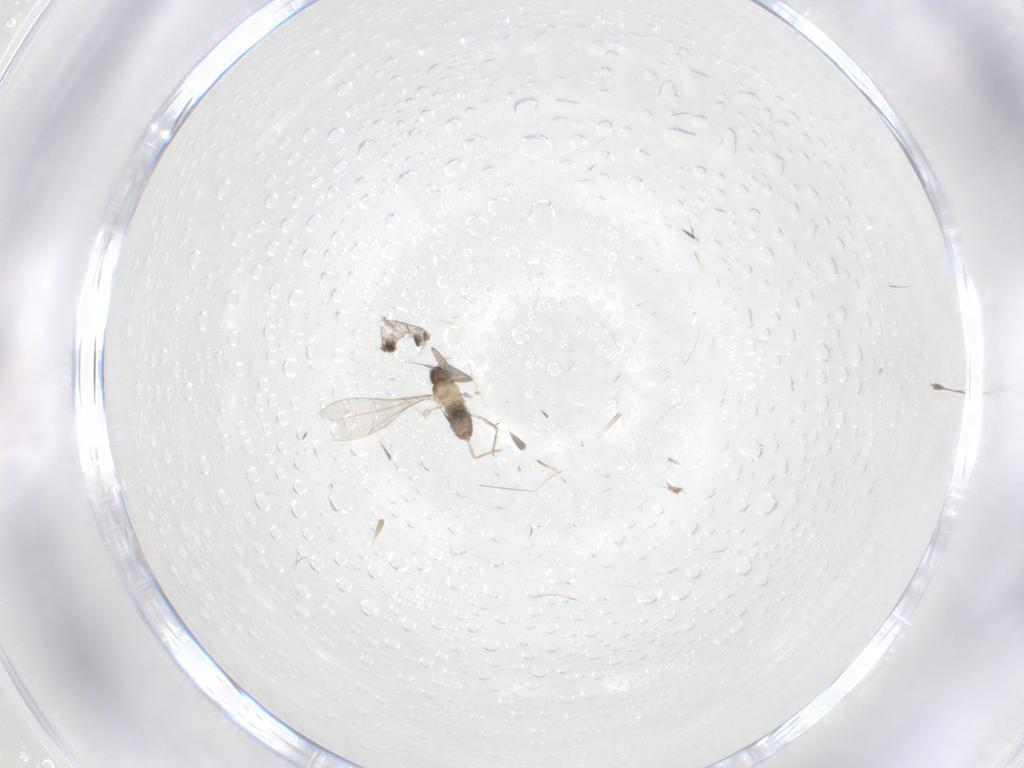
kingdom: Animalia
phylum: Arthropoda
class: Insecta
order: Diptera
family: Cecidomyiidae
